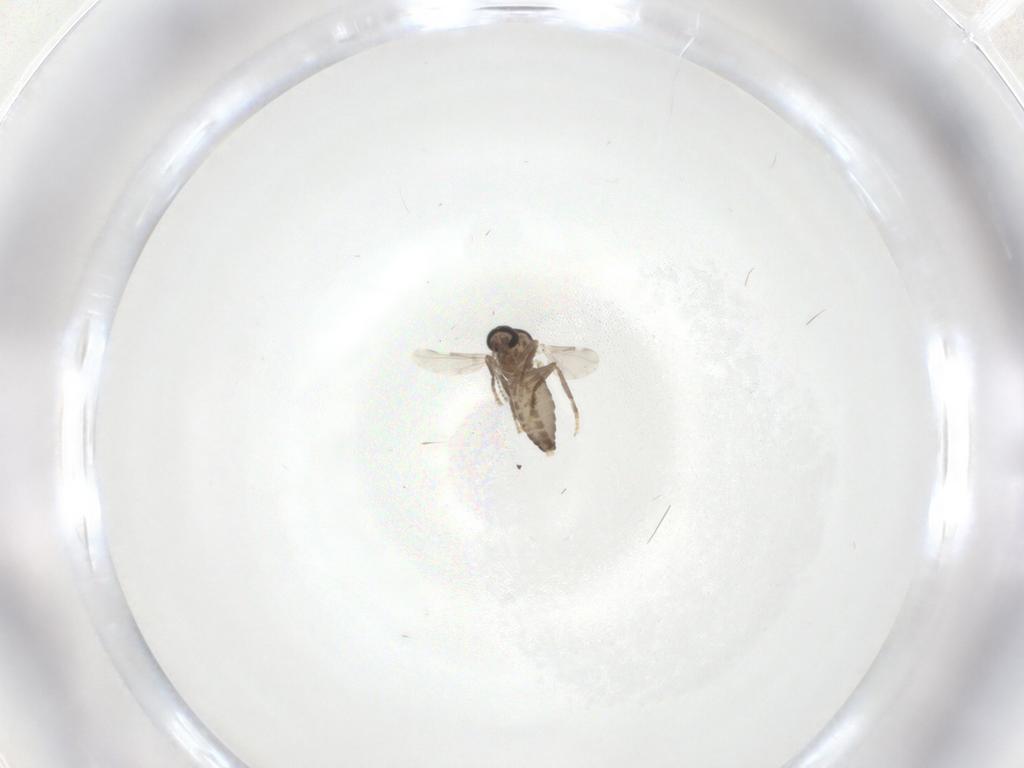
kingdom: Animalia
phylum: Arthropoda
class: Insecta
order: Diptera
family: Ceratopogonidae
